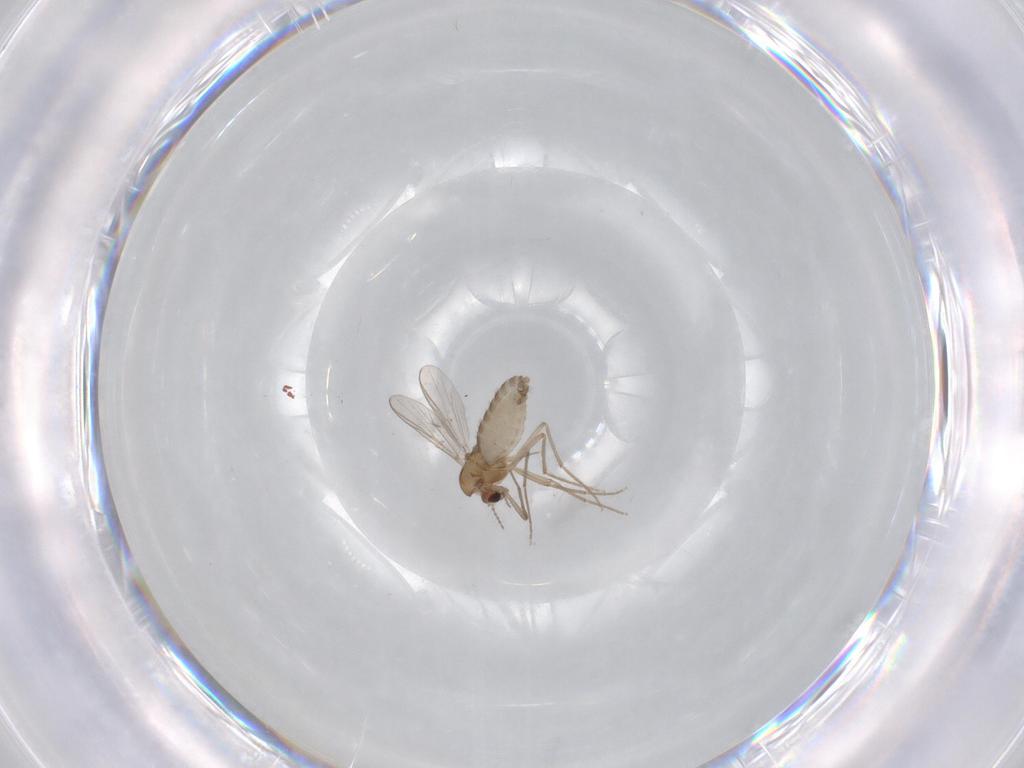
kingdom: Animalia
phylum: Arthropoda
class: Insecta
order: Diptera
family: Chironomidae
